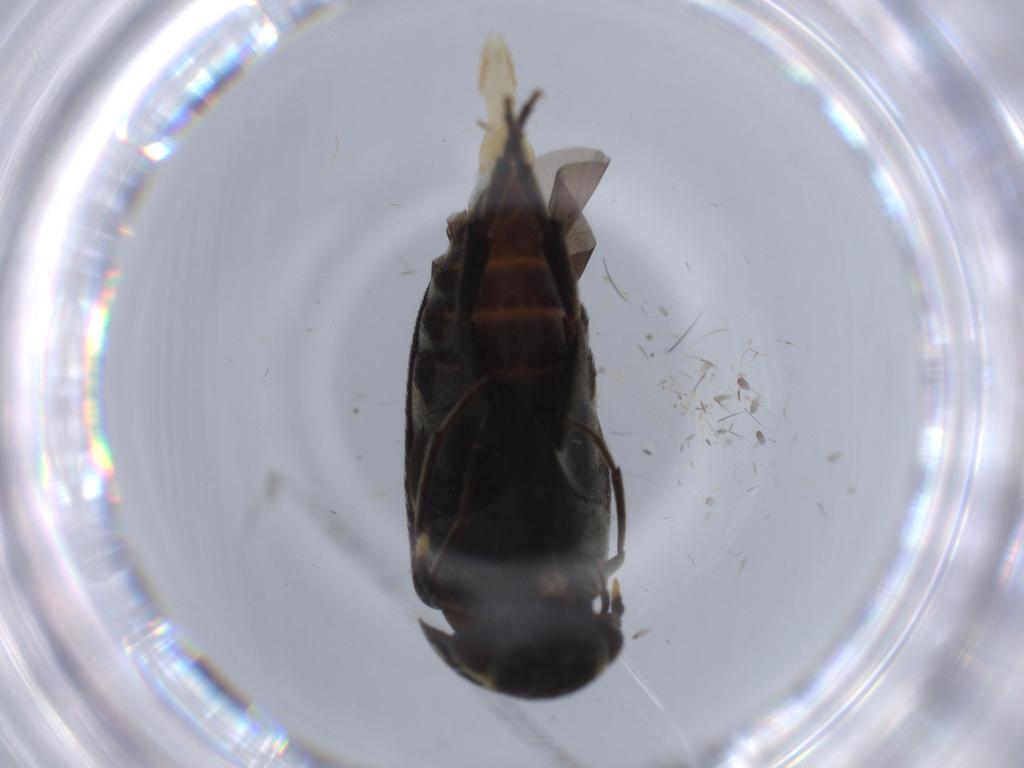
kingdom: Animalia
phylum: Arthropoda
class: Insecta
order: Coleoptera
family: Mordellidae
